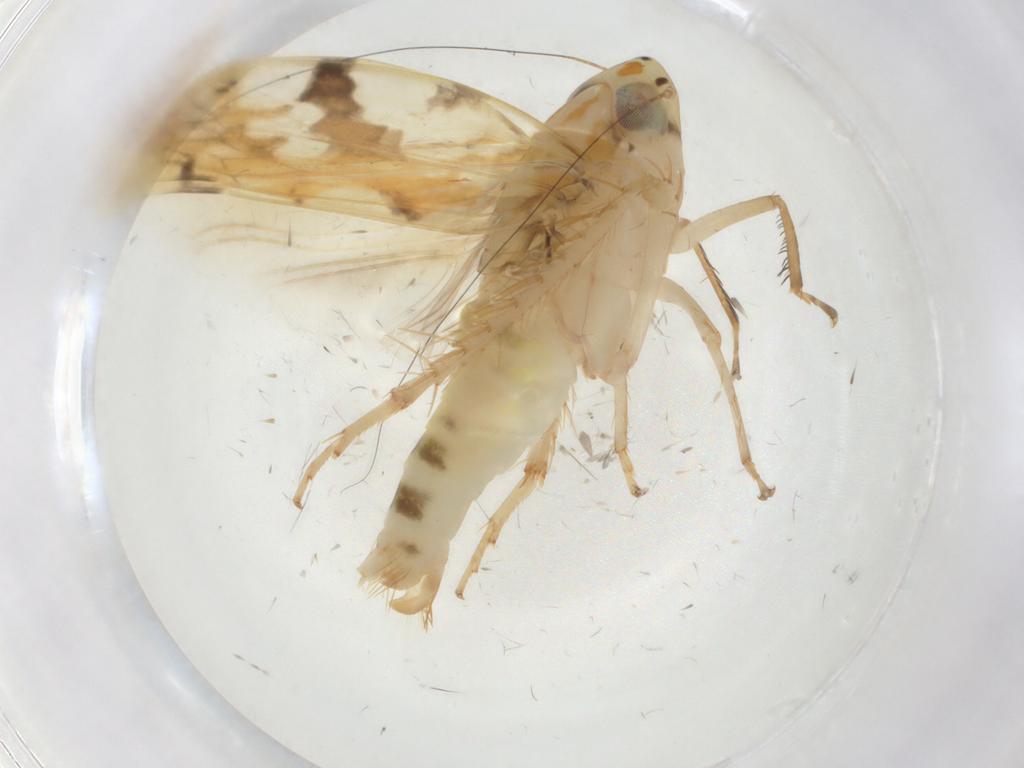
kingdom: Animalia
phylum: Arthropoda
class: Insecta
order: Hemiptera
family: Cicadellidae
